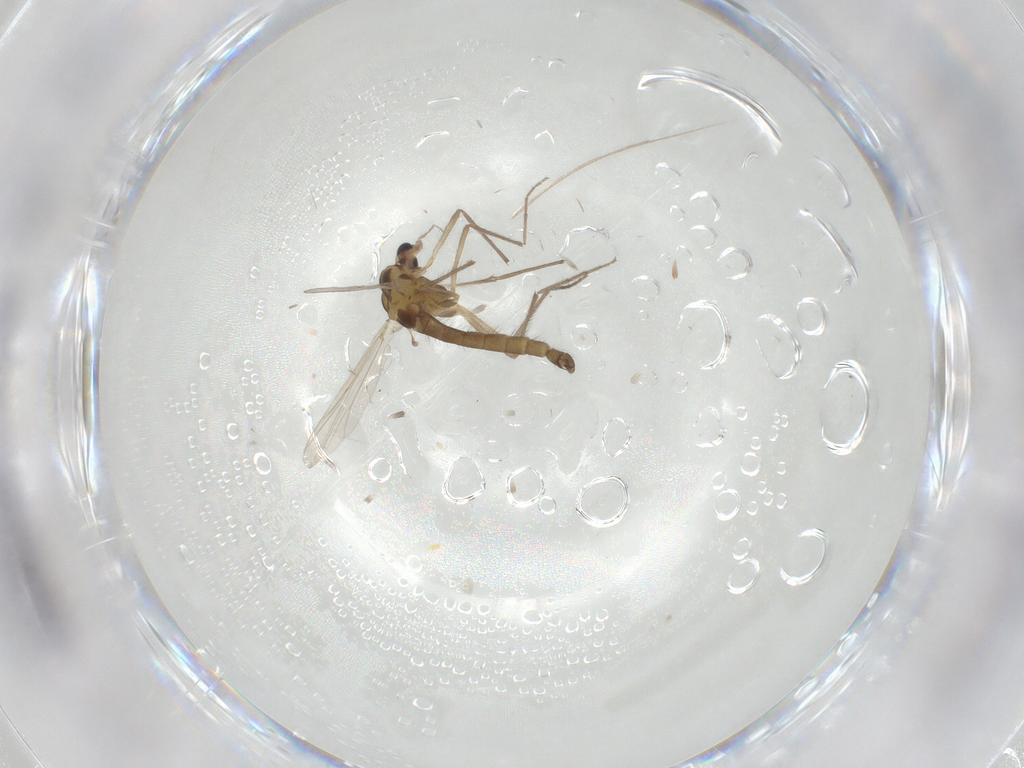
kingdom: Animalia
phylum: Arthropoda
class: Insecta
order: Diptera
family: Chironomidae
